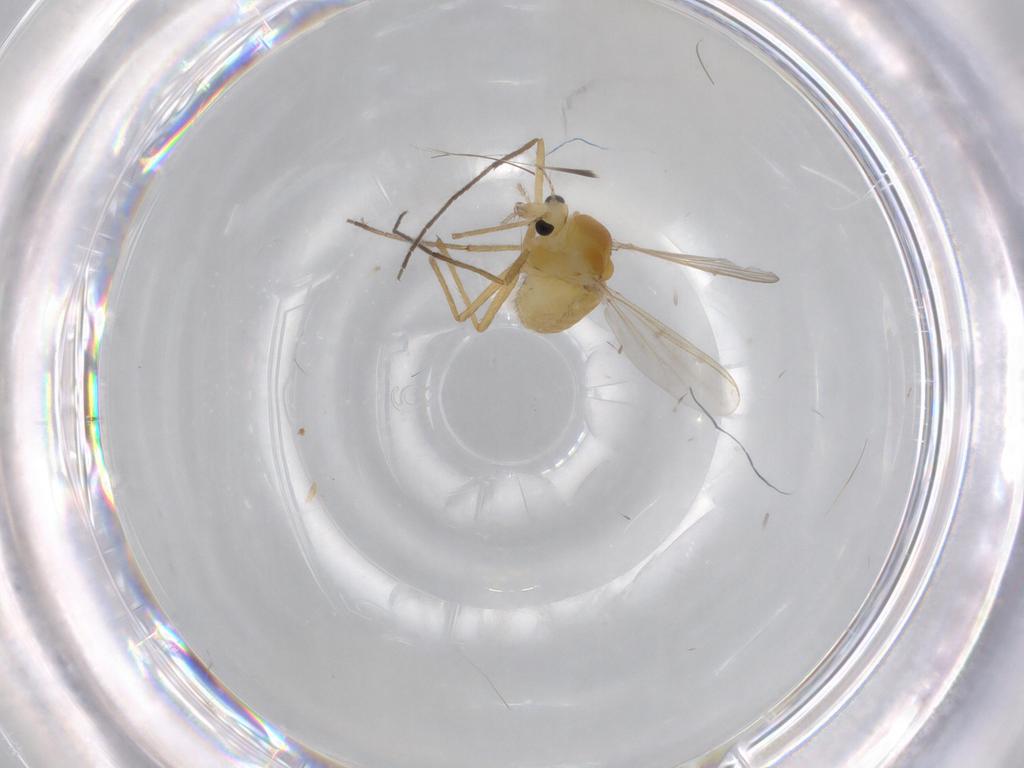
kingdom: Animalia
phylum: Arthropoda
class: Insecta
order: Diptera
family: Chironomidae
